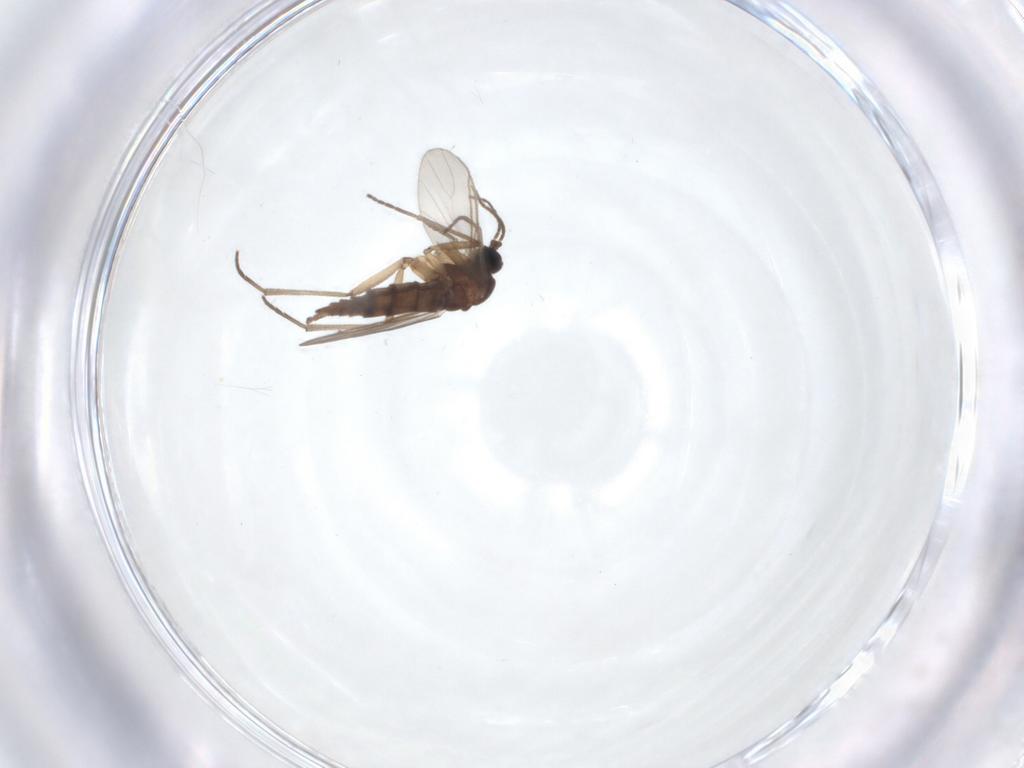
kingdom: Animalia
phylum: Arthropoda
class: Insecta
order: Diptera
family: Sciaridae
